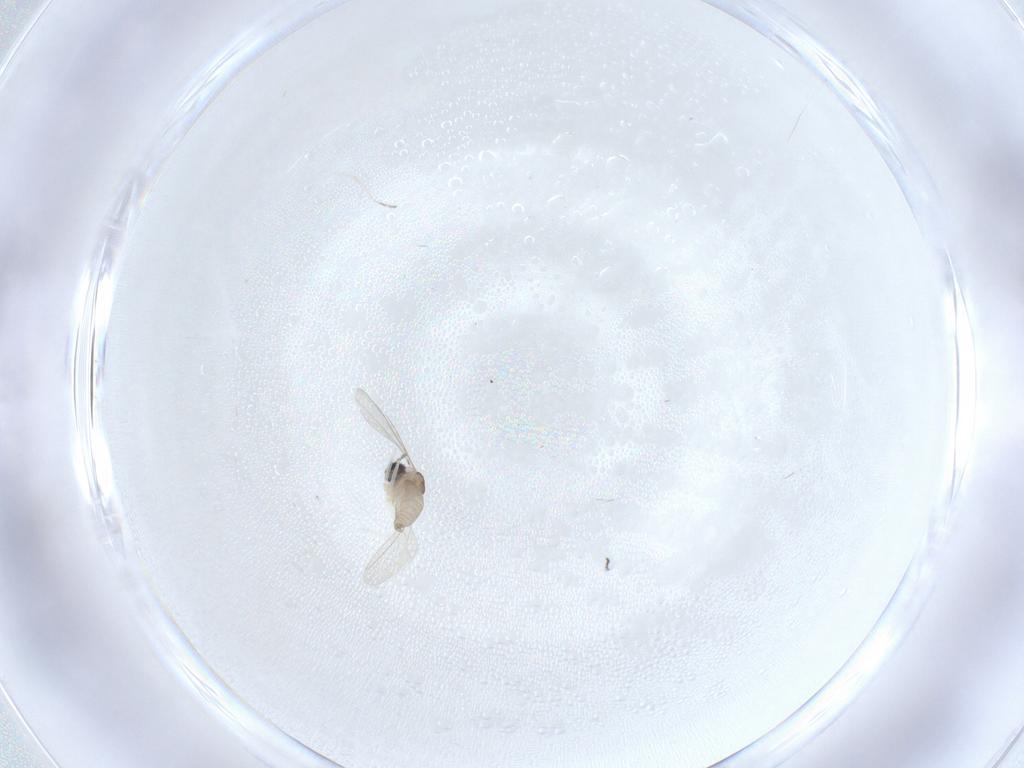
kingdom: Animalia
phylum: Arthropoda
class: Insecta
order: Diptera
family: Cecidomyiidae
